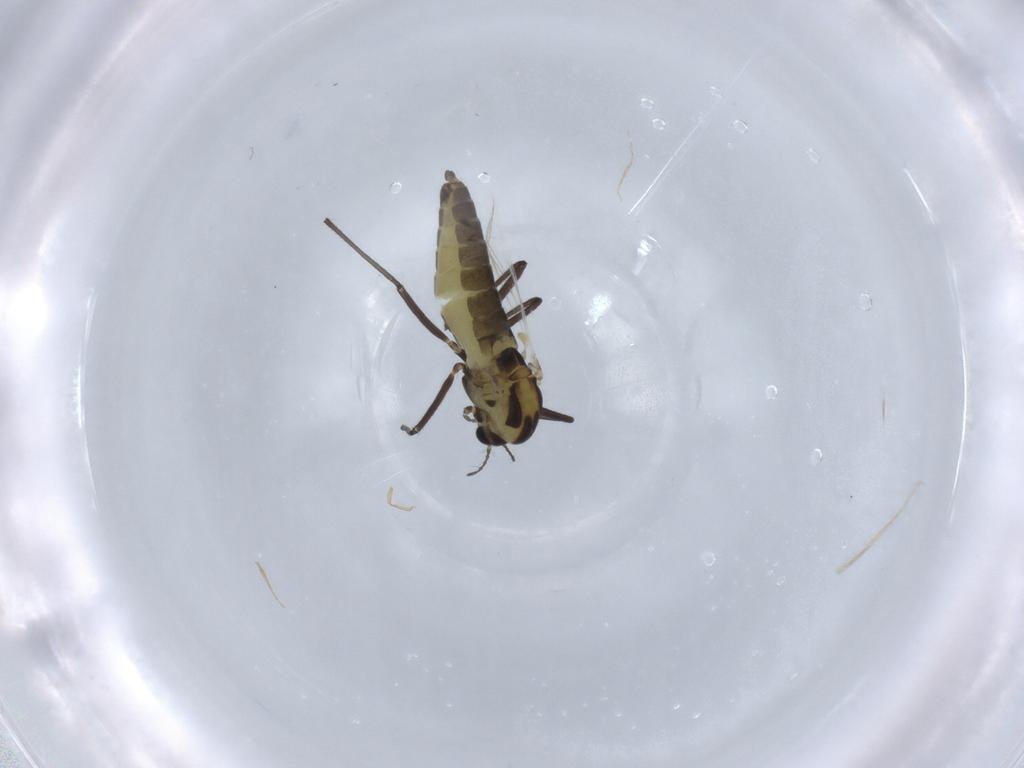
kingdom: Animalia
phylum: Arthropoda
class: Insecta
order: Diptera
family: Chironomidae
